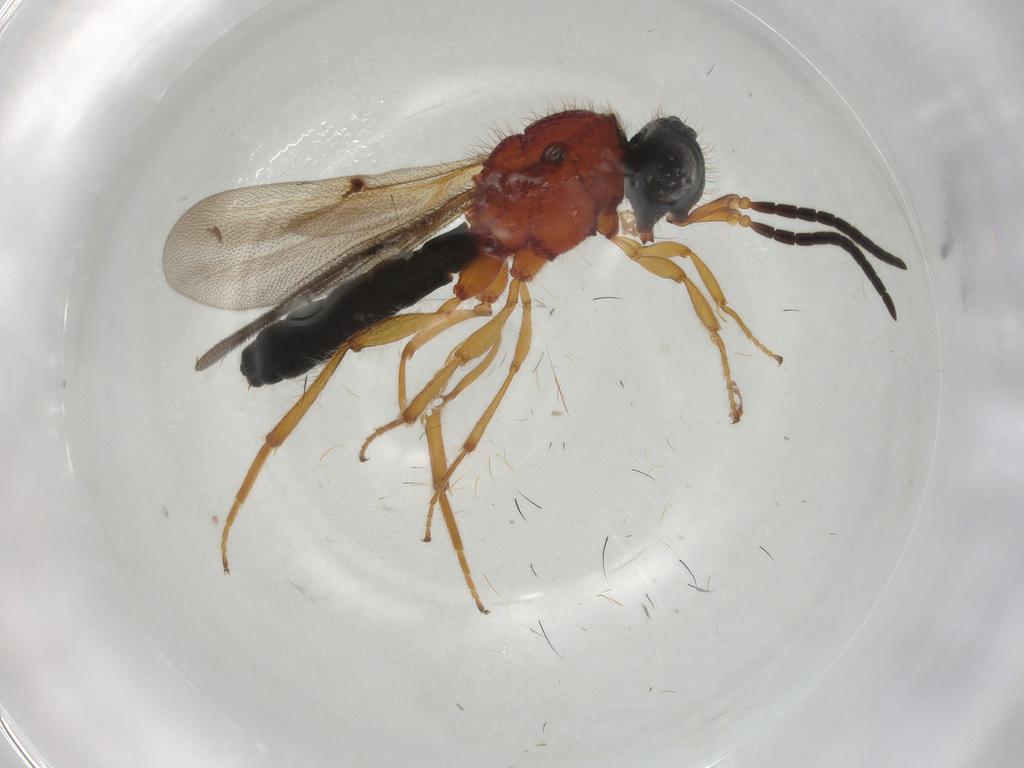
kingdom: Animalia
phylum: Arthropoda
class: Insecta
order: Hymenoptera
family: Scelionidae
